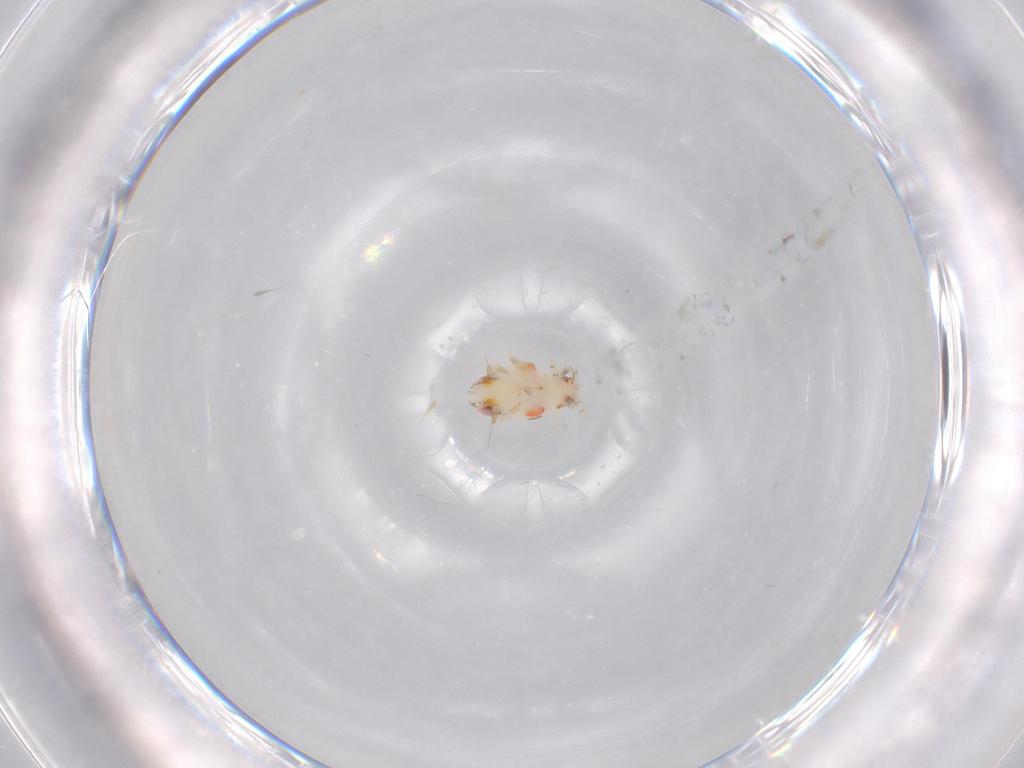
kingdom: Animalia
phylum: Arthropoda
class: Insecta
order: Hemiptera
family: Nogodinidae
